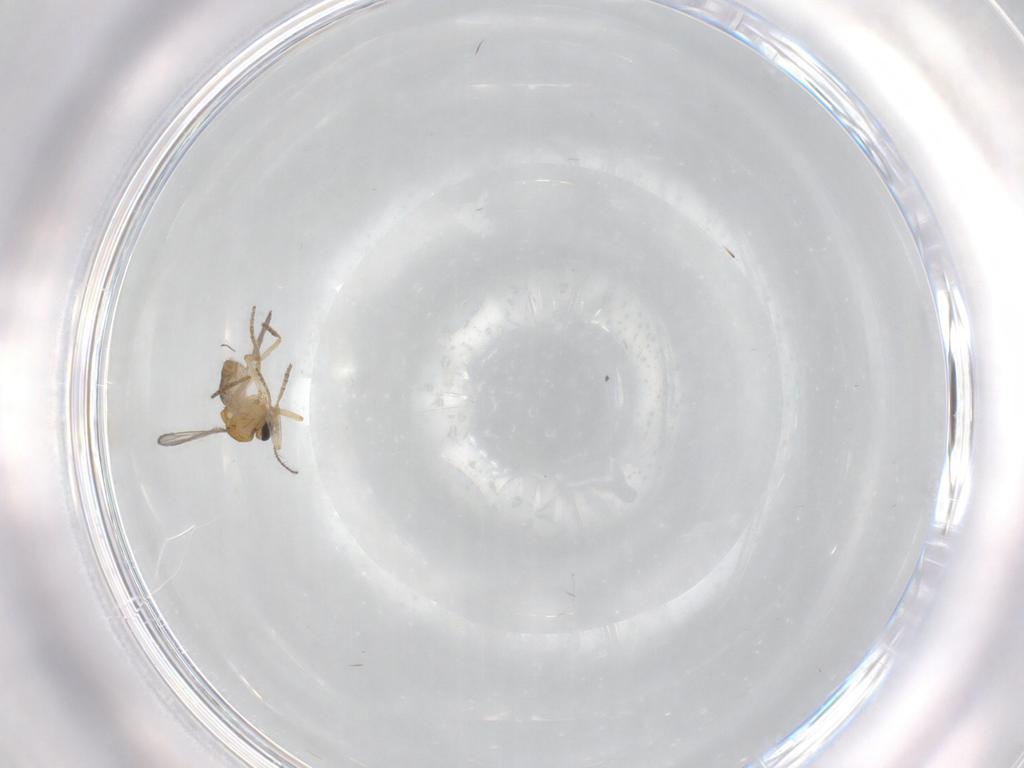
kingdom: Animalia
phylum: Arthropoda
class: Insecta
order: Diptera
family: Ceratopogonidae
